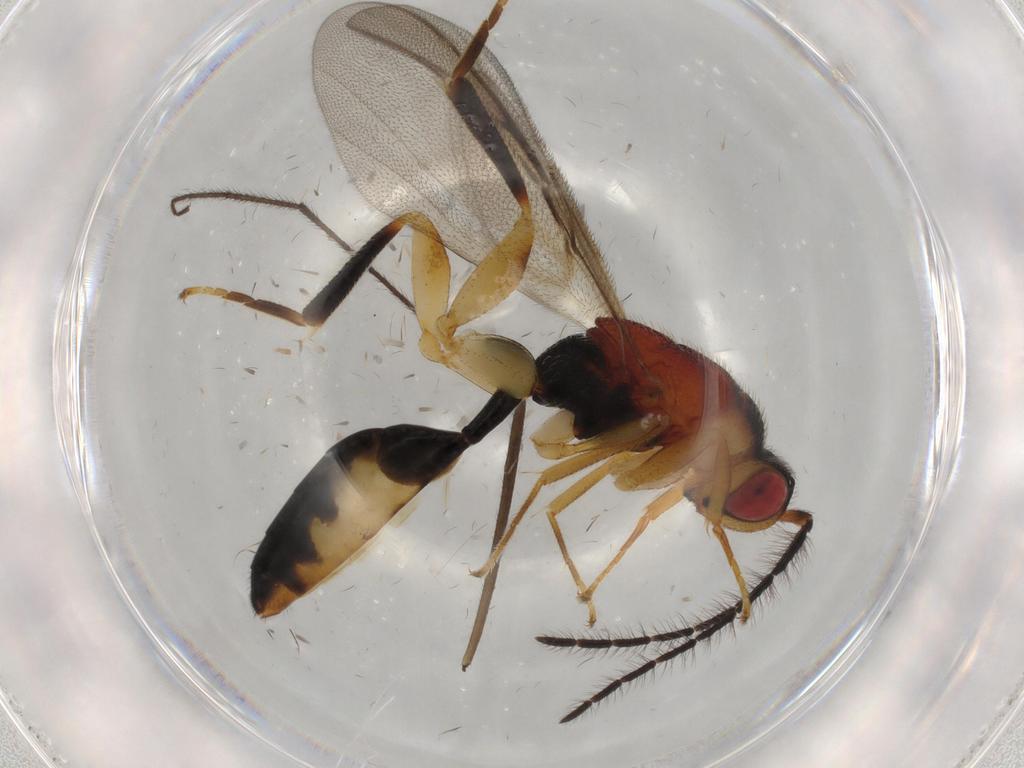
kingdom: Animalia
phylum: Arthropoda
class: Insecta
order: Hymenoptera
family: Eurytomidae
